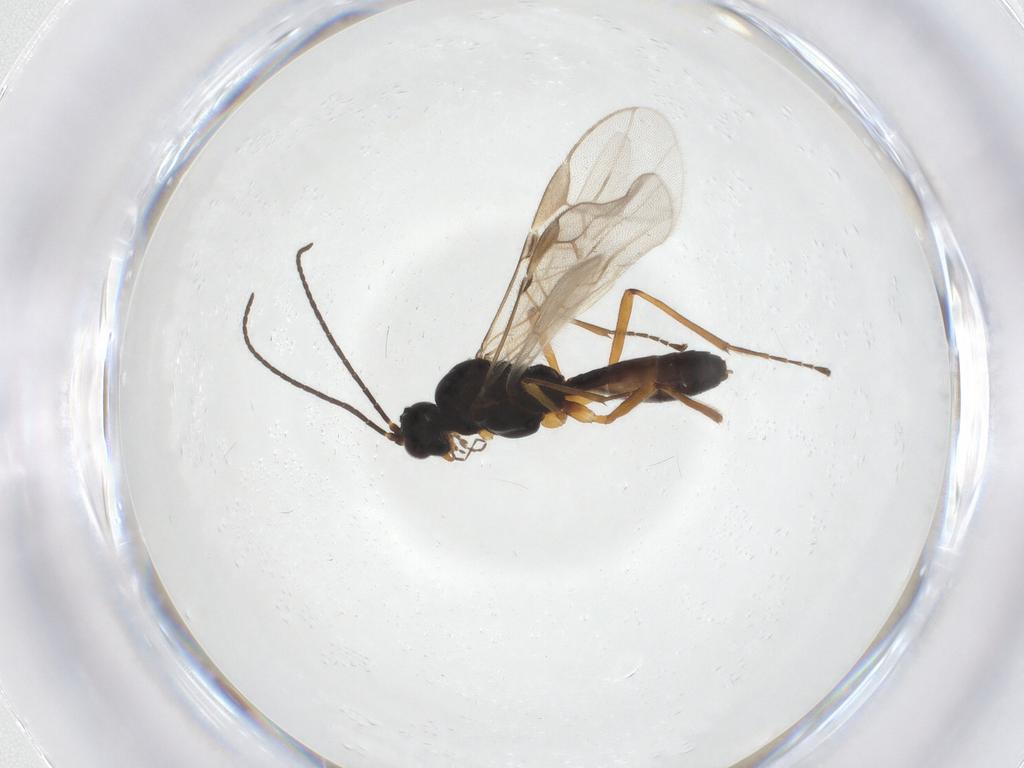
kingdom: Animalia
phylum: Arthropoda
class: Insecta
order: Hymenoptera
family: Braconidae
